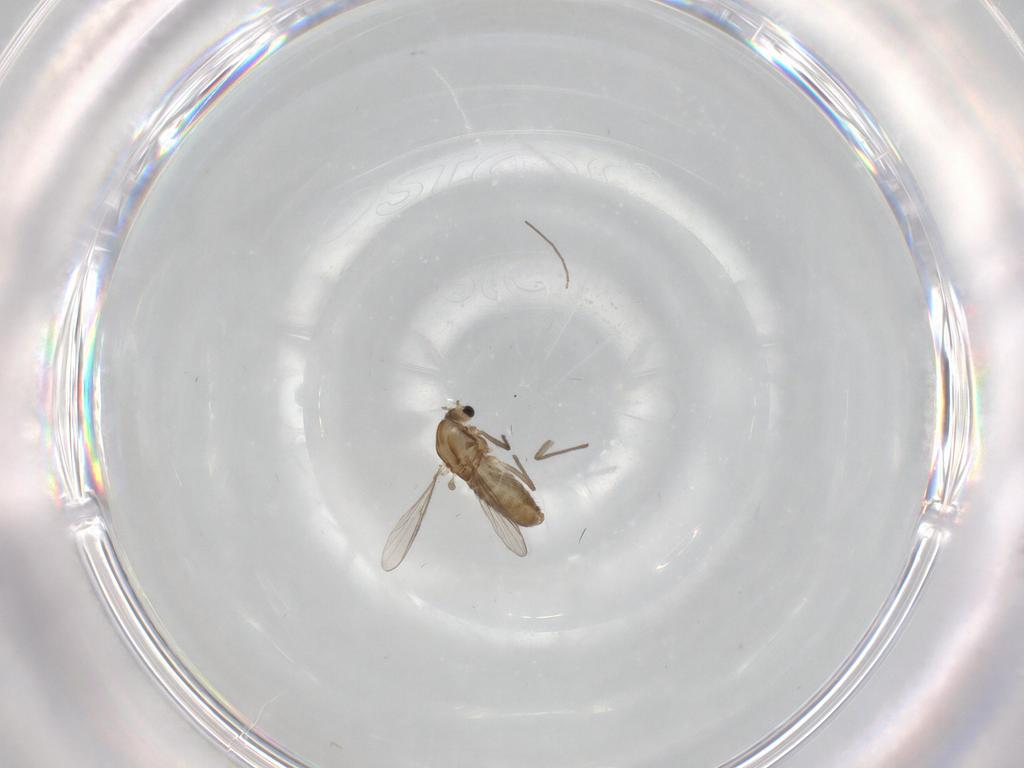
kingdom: Animalia
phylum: Arthropoda
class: Insecta
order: Diptera
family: Chironomidae
